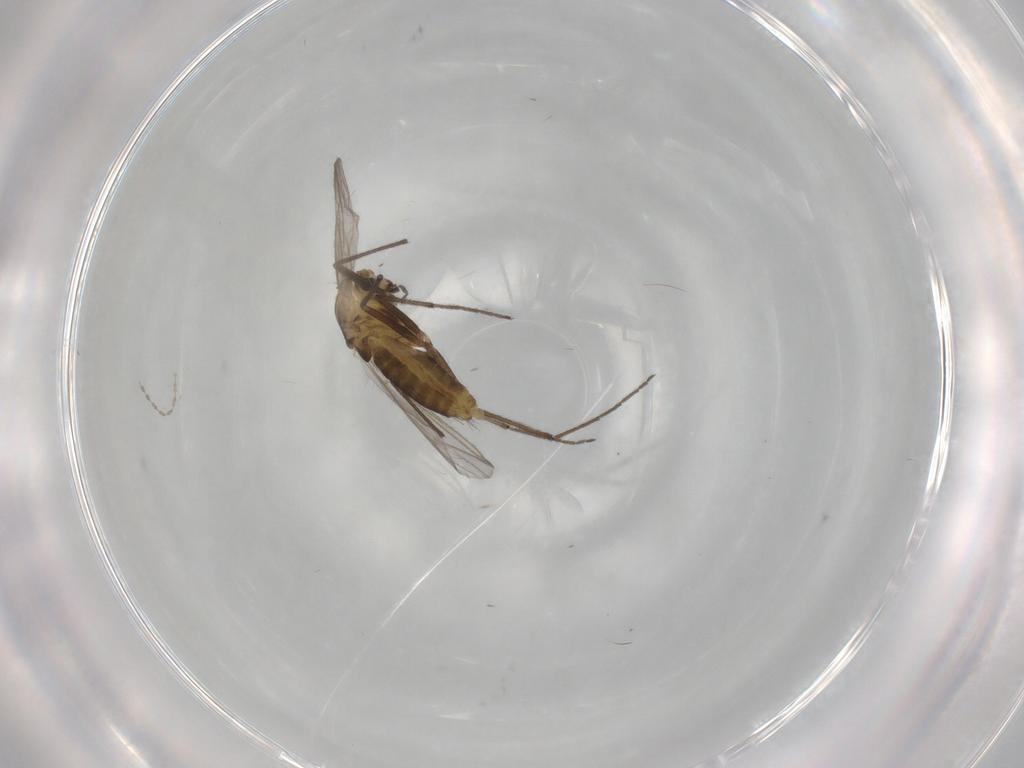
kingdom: Animalia
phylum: Arthropoda
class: Insecta
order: Diptera
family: Chironomidae
